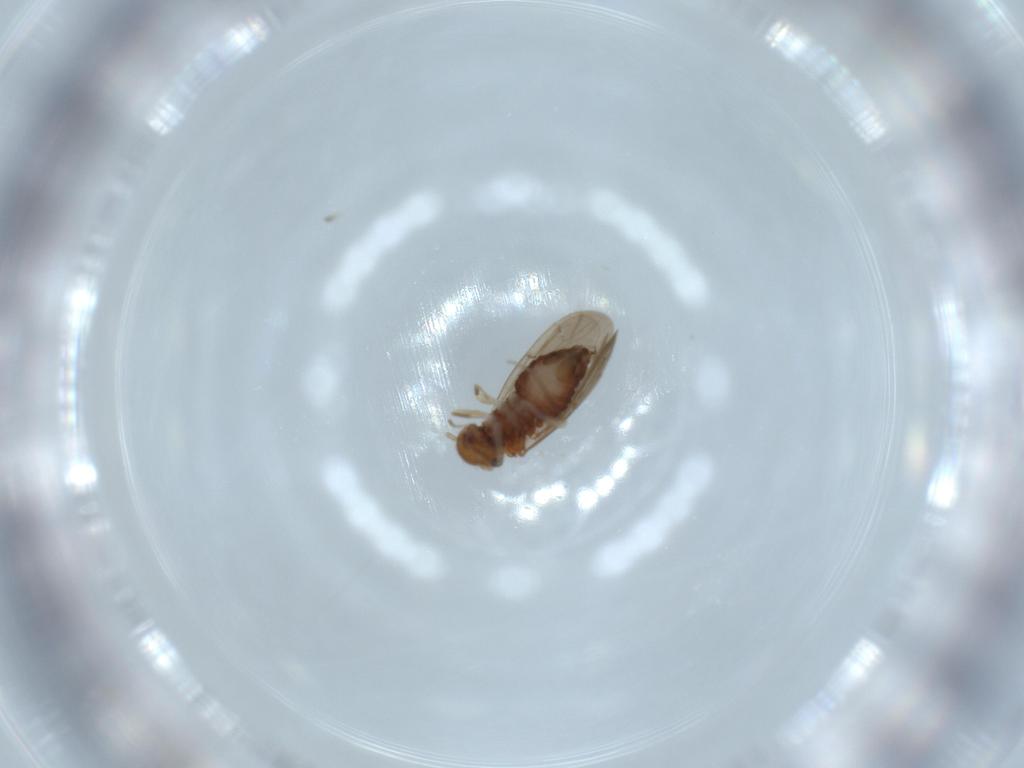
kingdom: Animalia
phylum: Arthropoda
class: Insecta
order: Psocodea
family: Ectopsocidae
